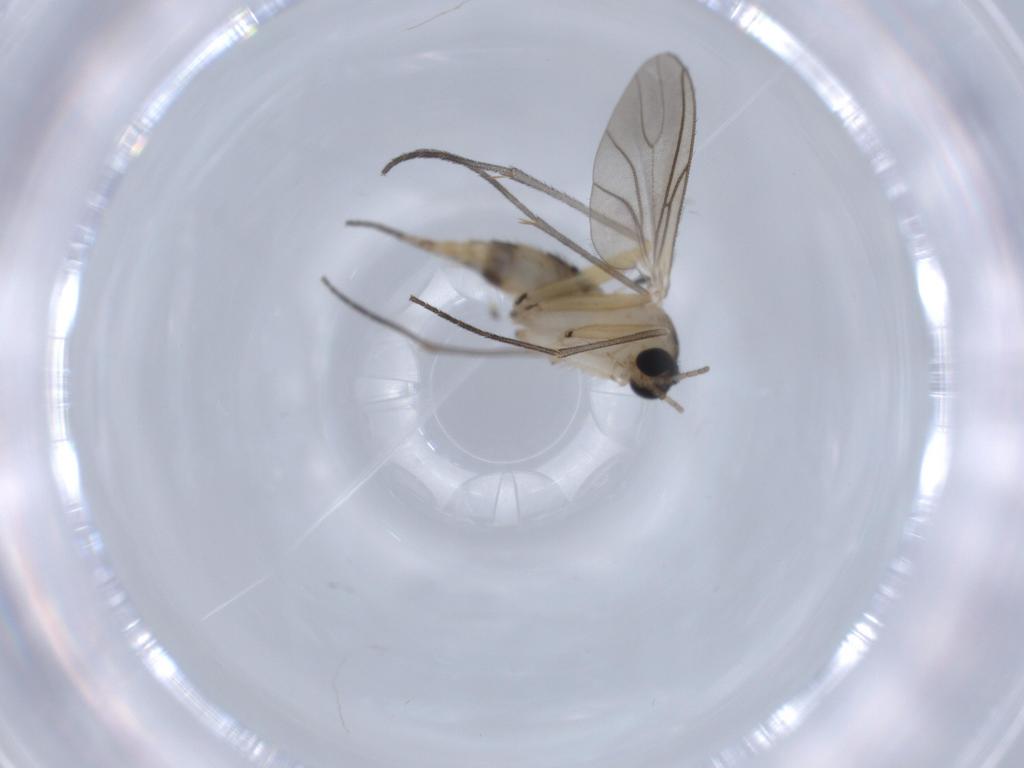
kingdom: Animalia
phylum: Arthropoda
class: Insecta
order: Diptera
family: Sciaridae
